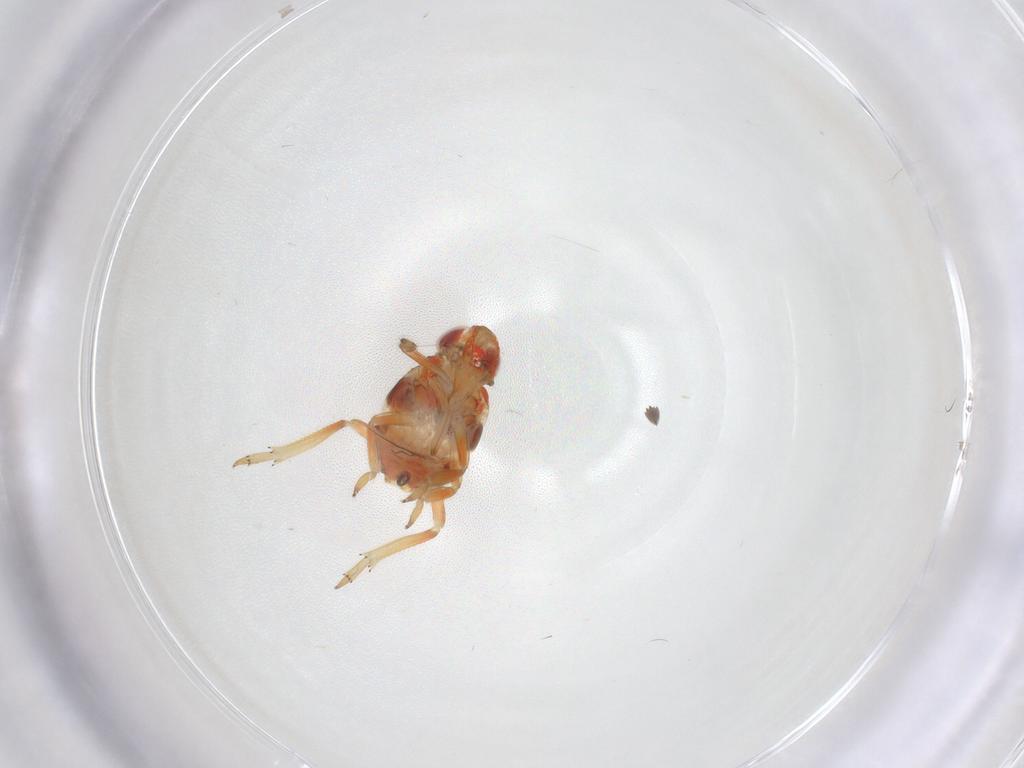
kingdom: Animalia
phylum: Arthropoda
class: Insecta
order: Hemiptera
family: Issidae
